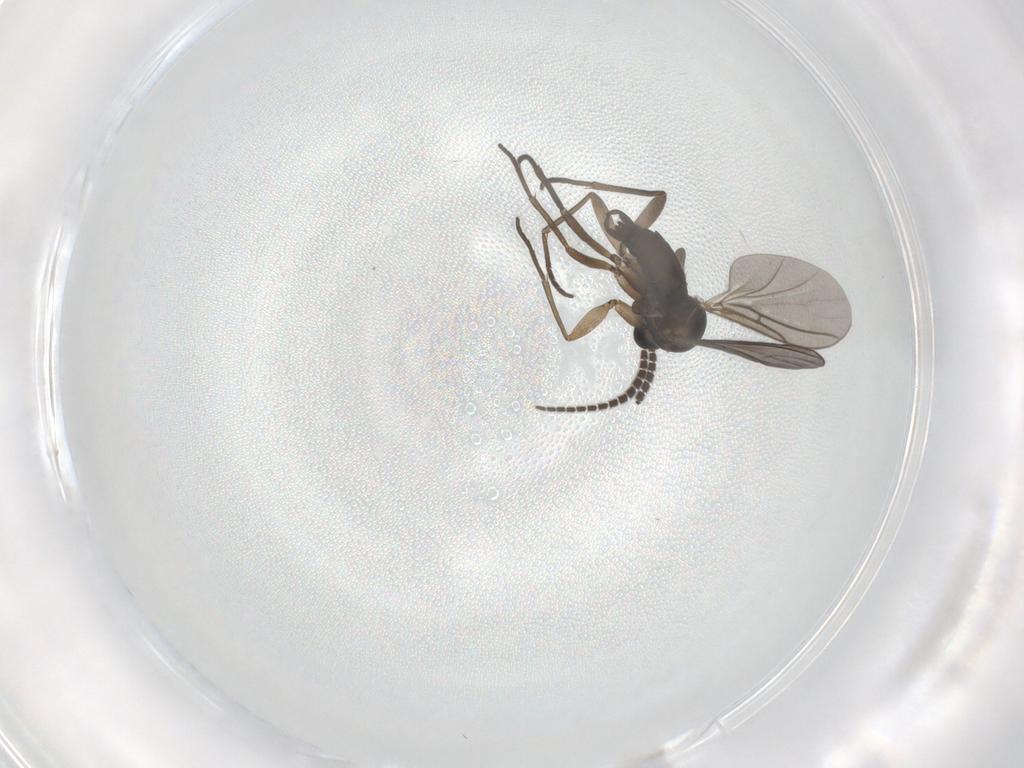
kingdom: Animalia
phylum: Arthropoda
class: Insecta
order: Diptera
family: Sciaridae
